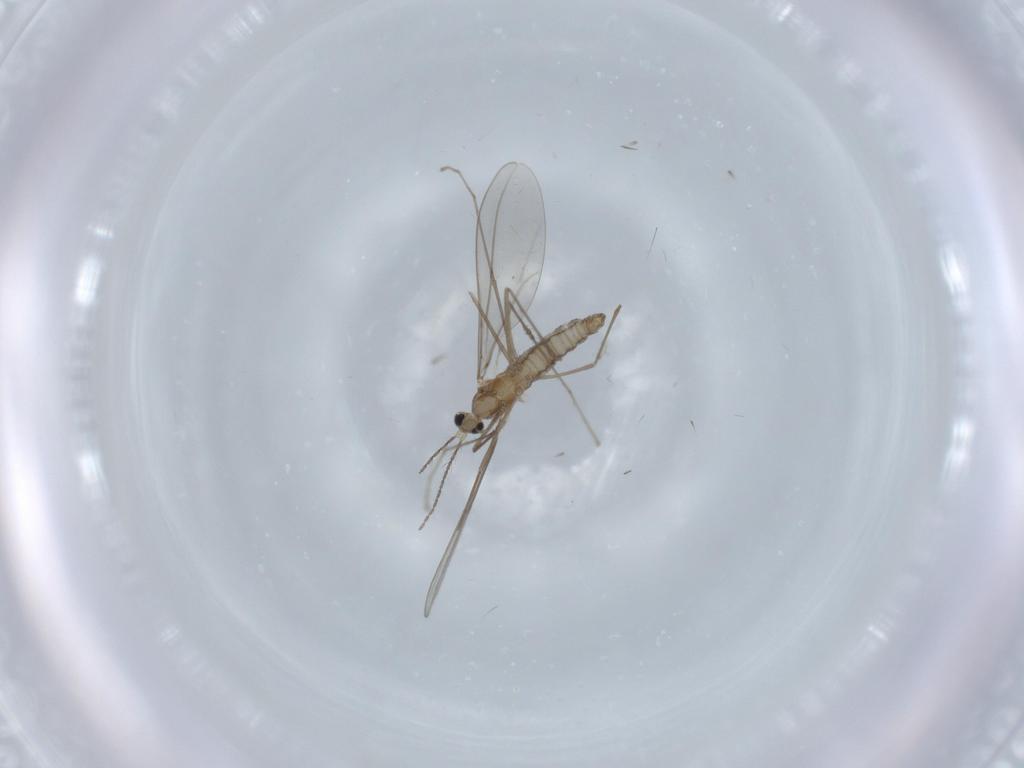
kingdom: Animalia
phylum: Arthropoda
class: Insecta
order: Diptera
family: Cecidomyiidae
